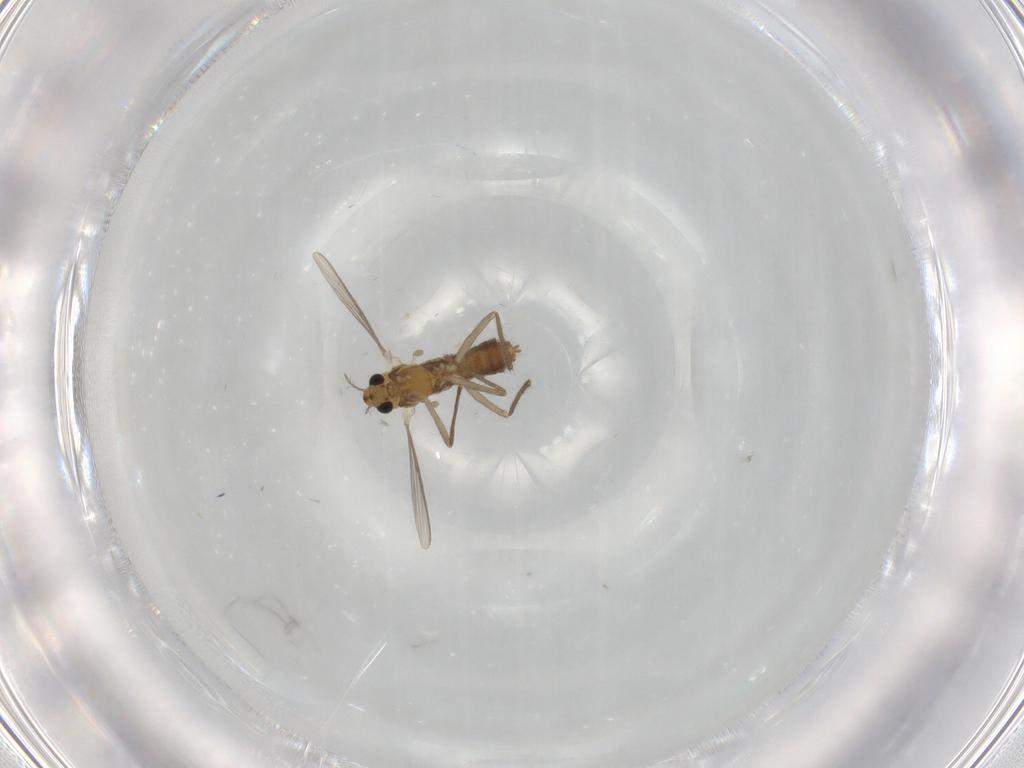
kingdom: Animalia
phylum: Arthropoda
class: Insecta
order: Diptera
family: Chironomidae
